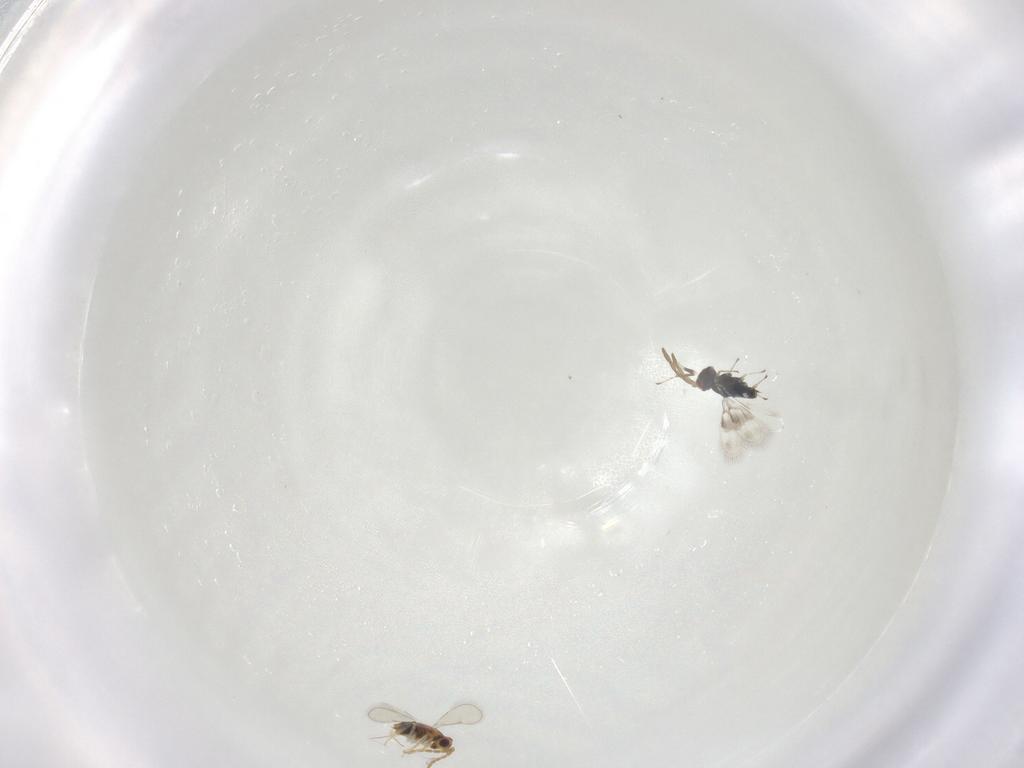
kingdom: Animalia
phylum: Arthropoda
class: Insecta
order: Hymenoptera
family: Aphelinidae
